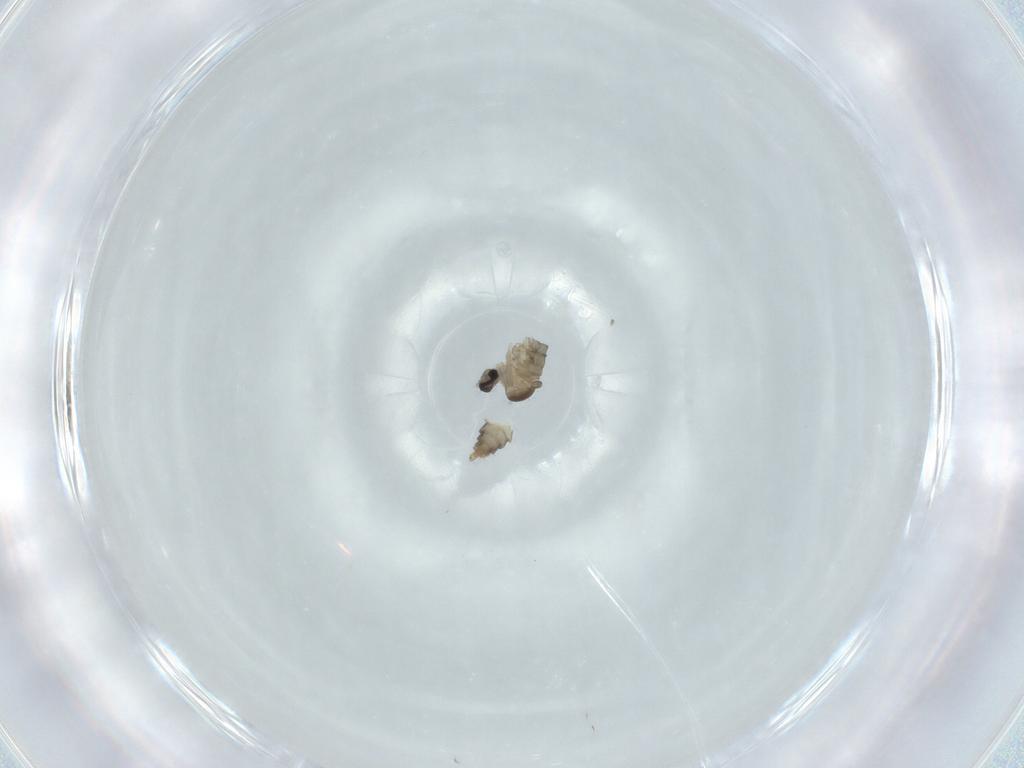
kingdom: Animalia
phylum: Arthropoda
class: Insecta
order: Diptera
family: Cecidomyiidae
